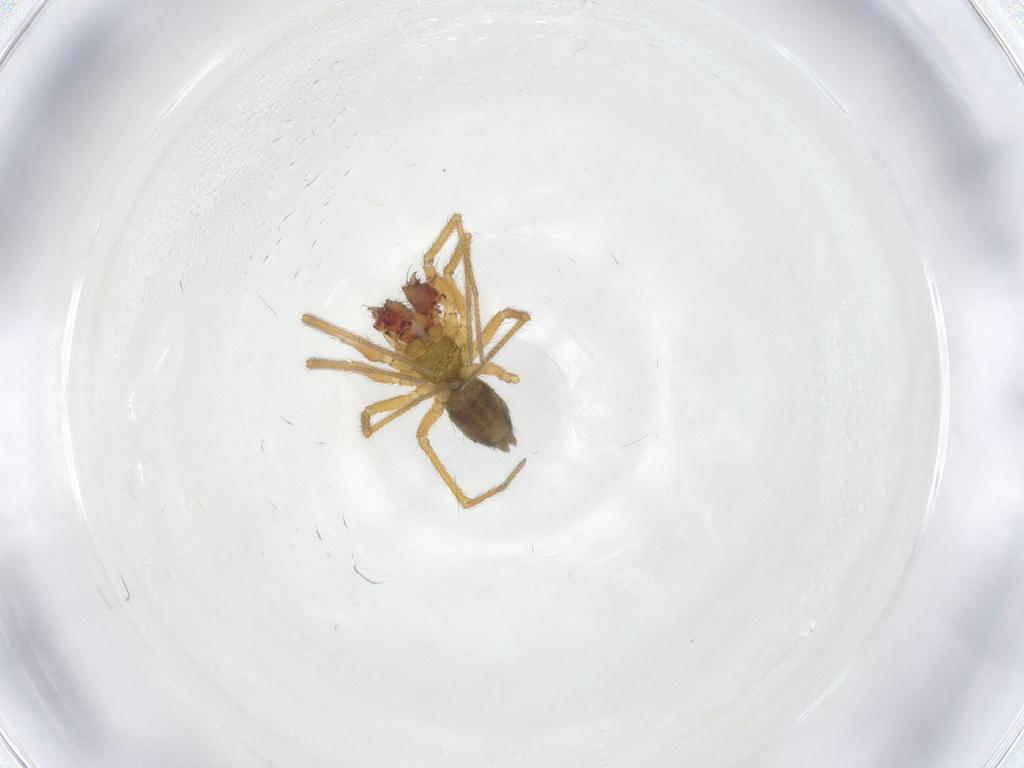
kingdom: Animalia
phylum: Arthropoda
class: Arachnida
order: Araneae
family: Linyphiidae
